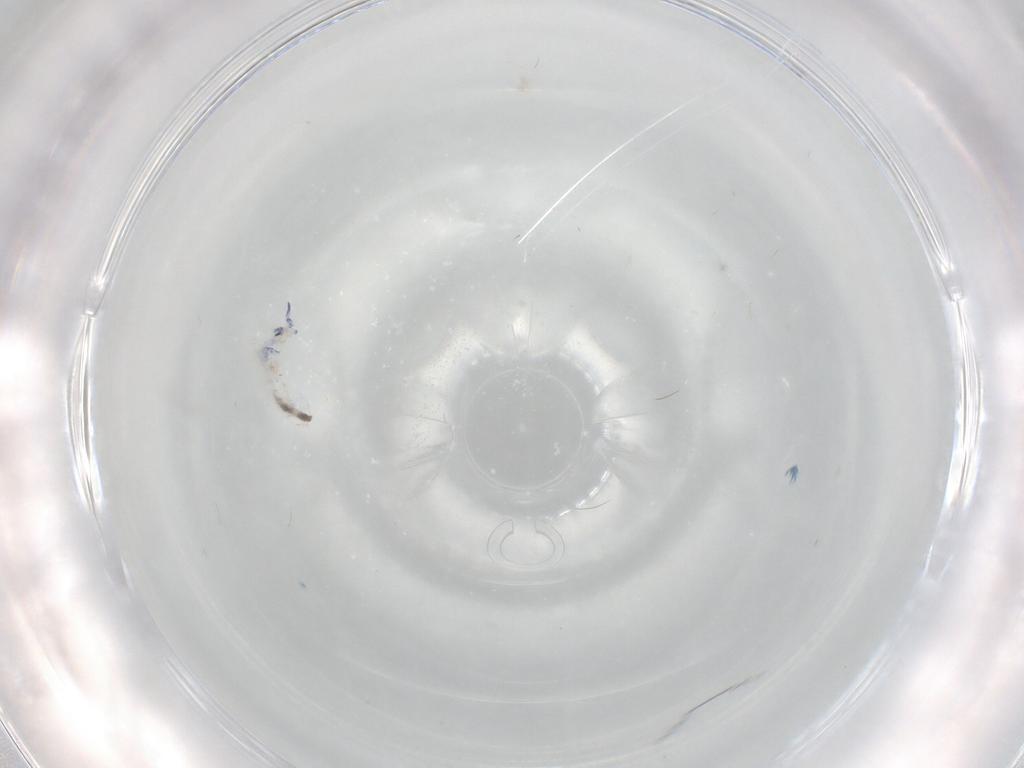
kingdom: Animalia
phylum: Arthropoda
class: Collembola
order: Entomobryomorpha
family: Entomobryidae
